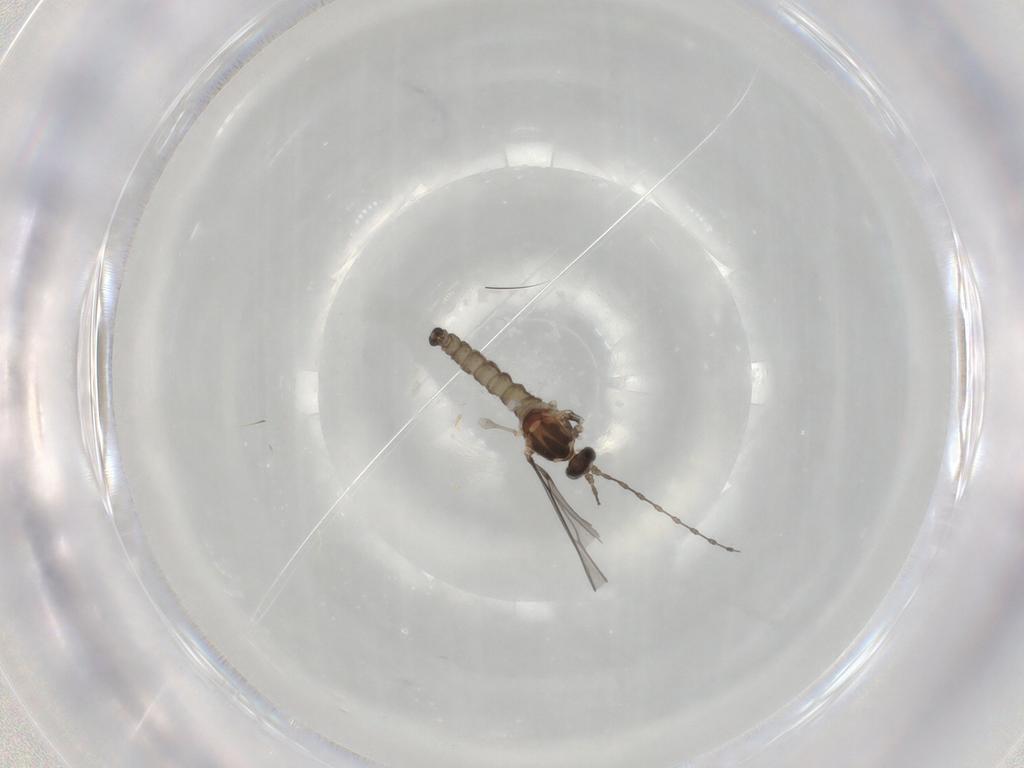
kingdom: Animalia
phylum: Arthropoda
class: Insecta
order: Diptera
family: Cecidomyiidae
